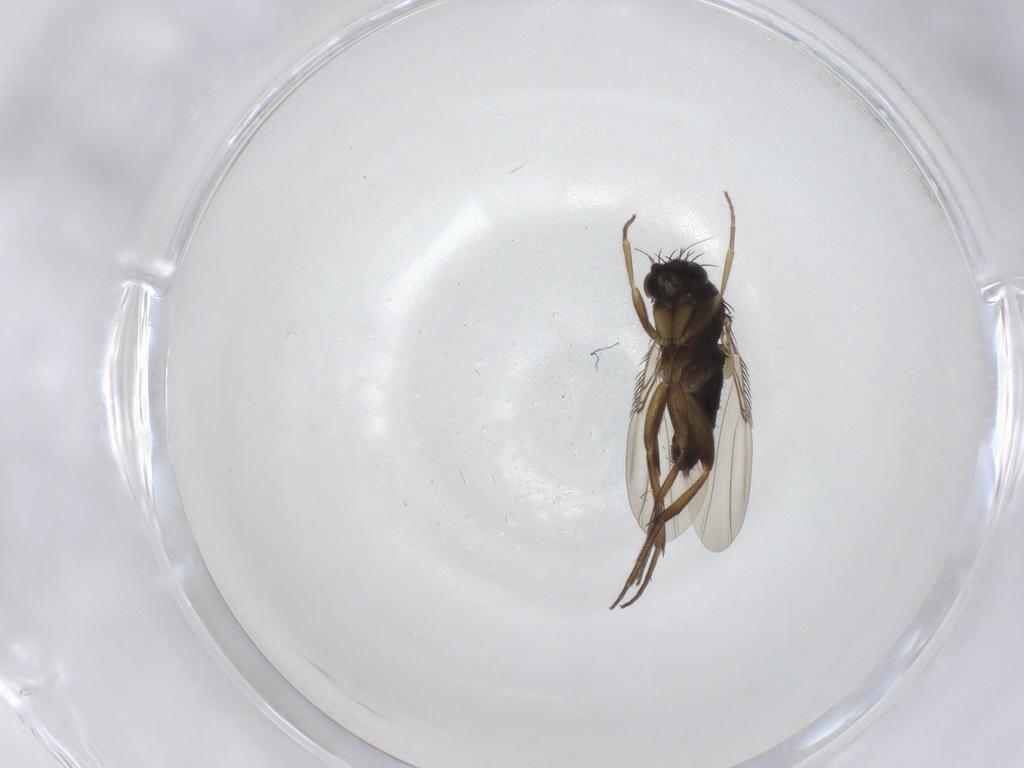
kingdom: Animalia
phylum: Arthropoda
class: Insecta
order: Diptera
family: Phoridae
